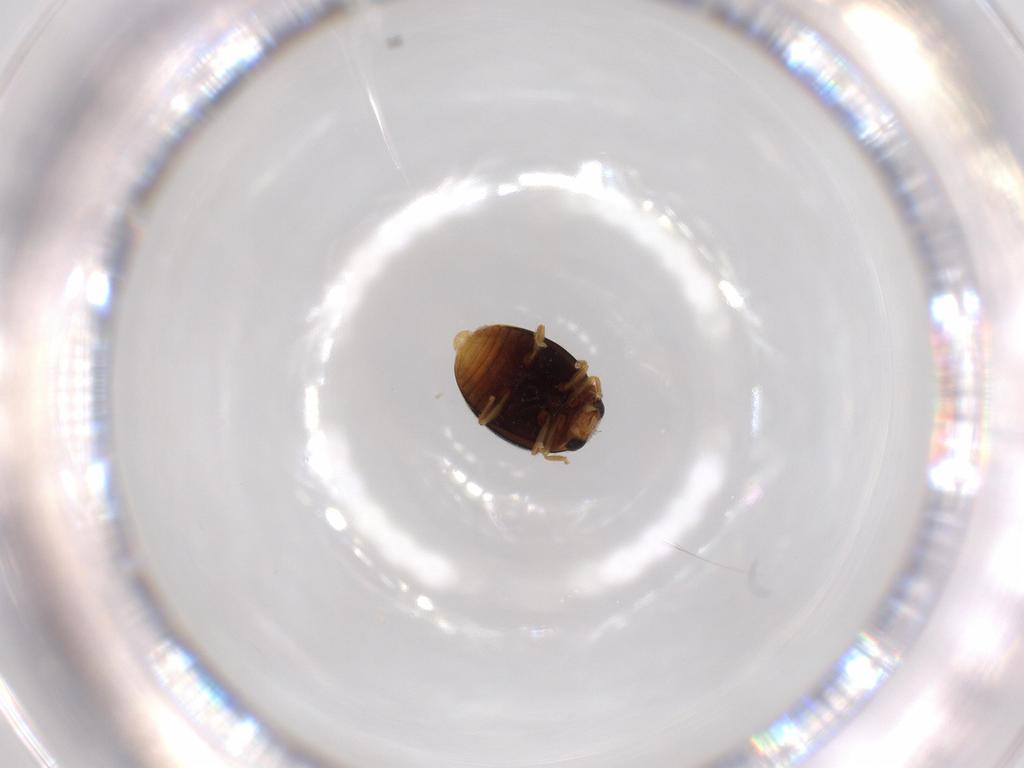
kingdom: Animalia
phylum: Arthropoda
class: Insecta
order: Coleoptera
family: Coccinellidae
